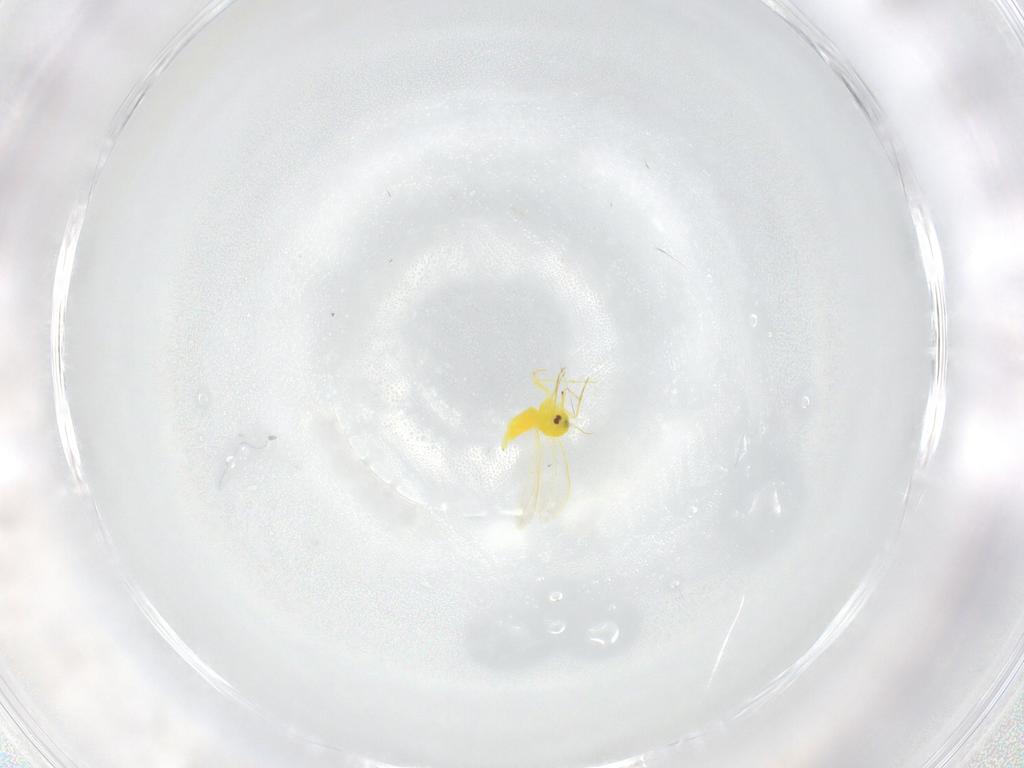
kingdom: Animalia
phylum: Arthropoda
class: Insecta
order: Hemiptera
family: Aleyrodidae
